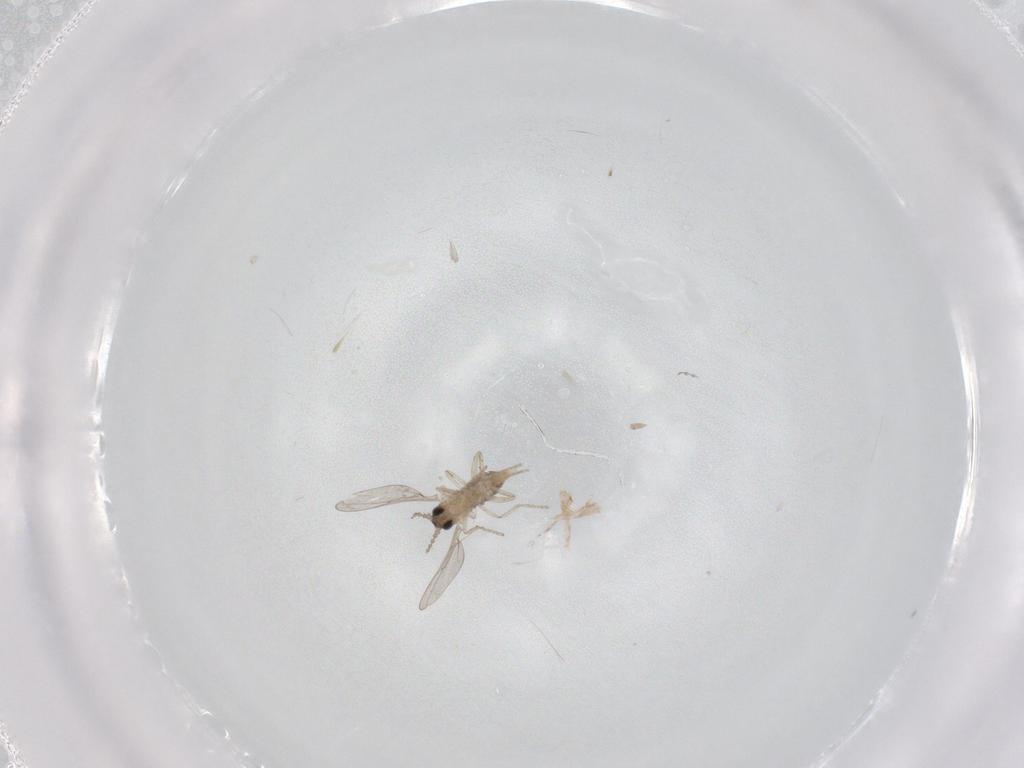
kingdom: Animalia
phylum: Arthropoda
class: Insecta
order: Diptera
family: Cecidomyiidae
